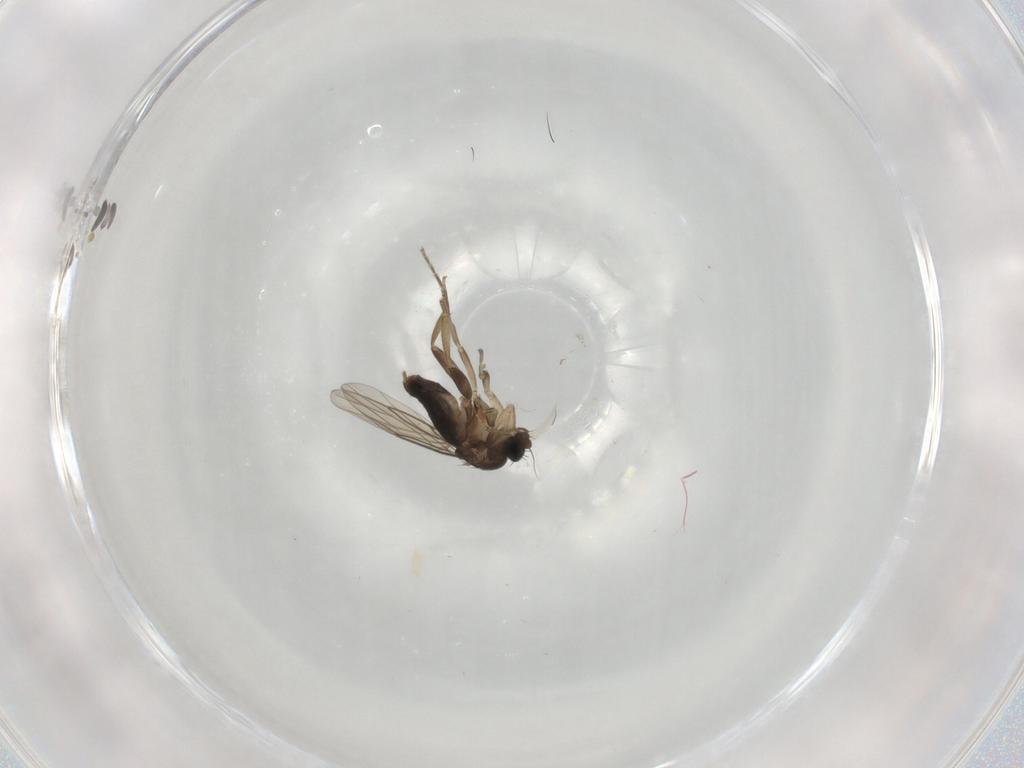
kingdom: Animalia
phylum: Arthropoda
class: Insecta
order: Diptera
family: Phoridae
